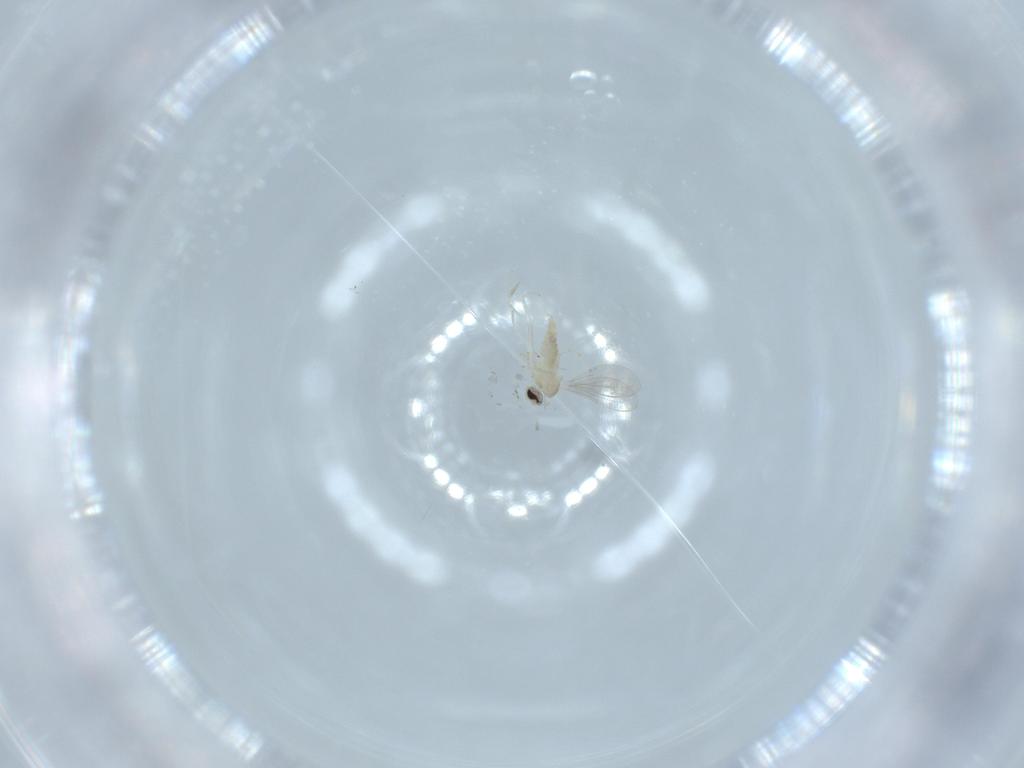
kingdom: Animalia
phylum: Arthropoda
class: Insecta
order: Diptera
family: Cecidomyiidae
